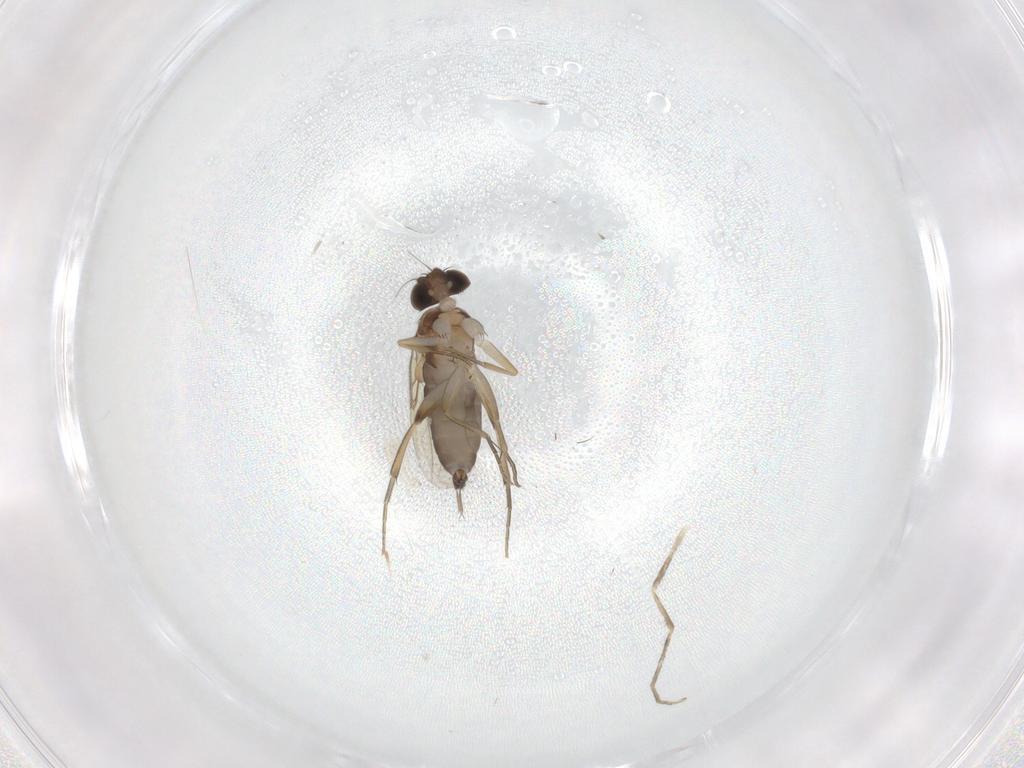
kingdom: Animalia
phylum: Arthropoda
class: Insecta
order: Diptera
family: Phoridae
